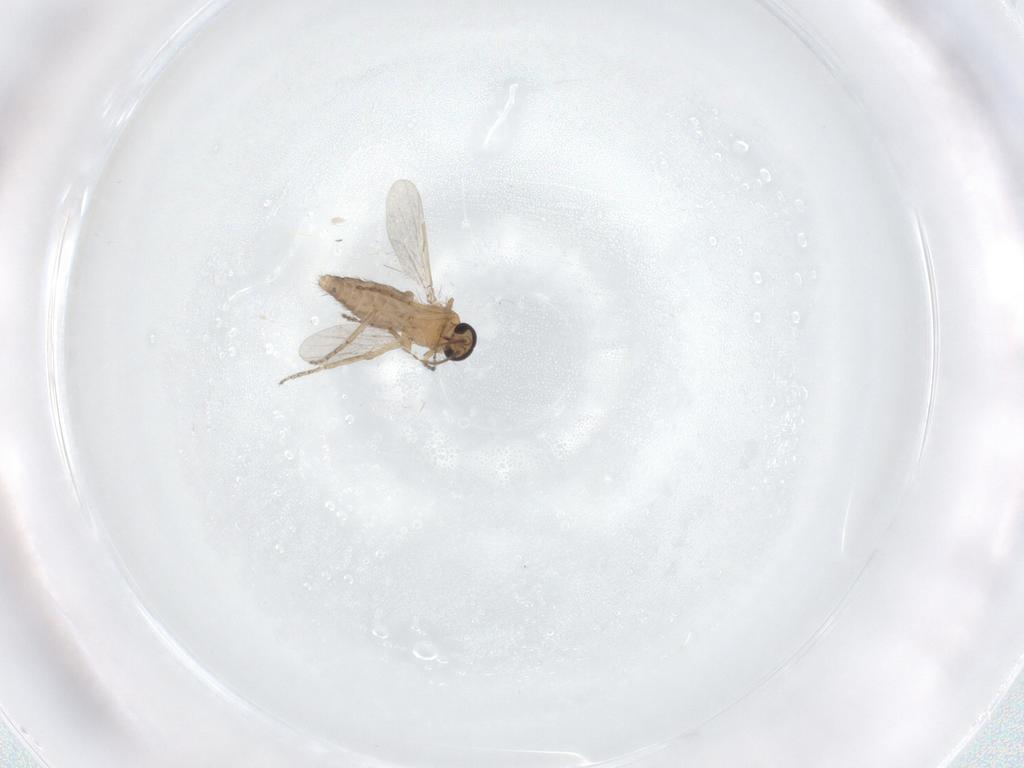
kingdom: Animalia
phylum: Arthropoda
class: Insecta
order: Diptera
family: Ceratopogonidae
